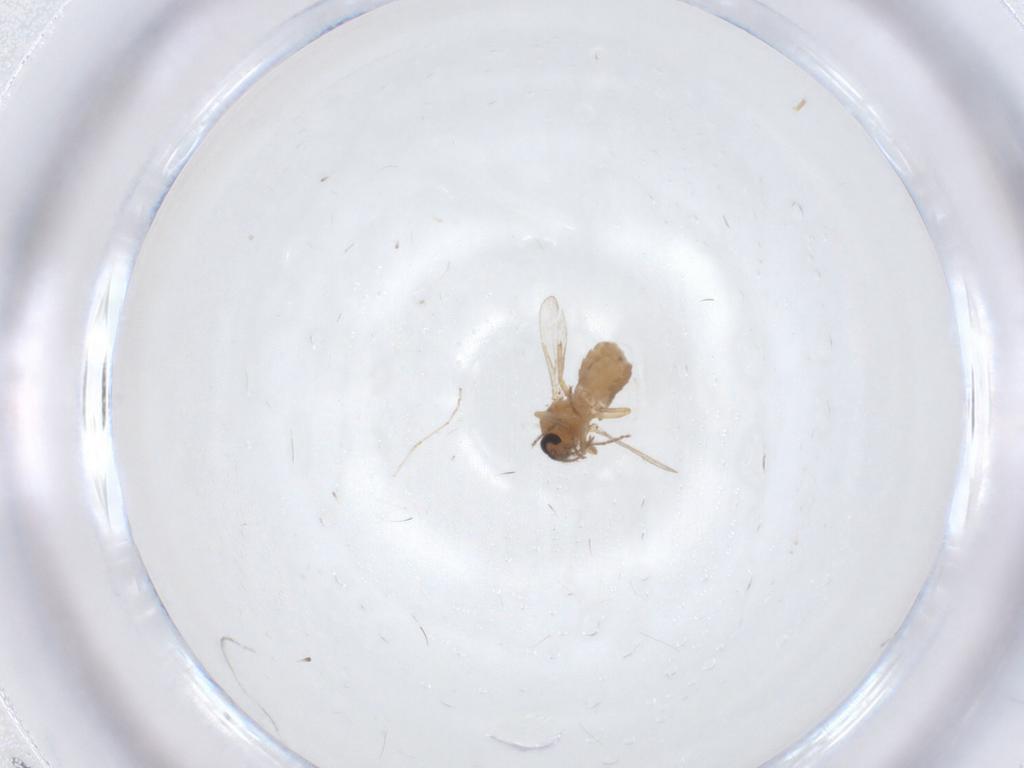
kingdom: Animalia
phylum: Arthropoda
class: Insecta
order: Diptera
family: Ceratopogonidae
